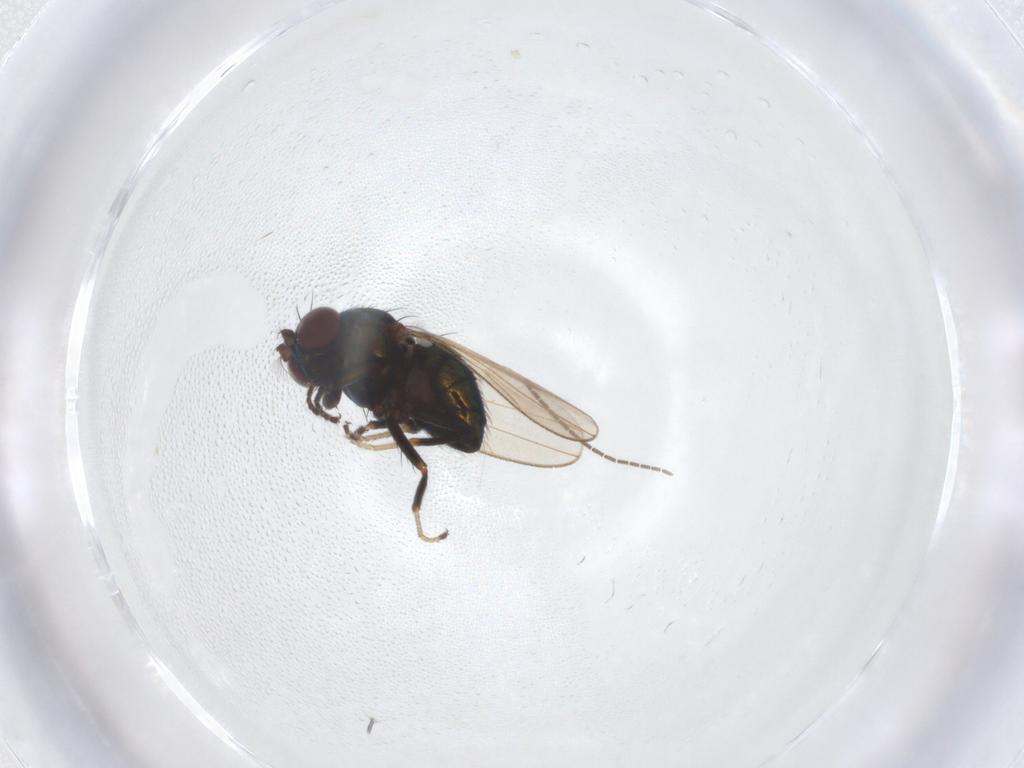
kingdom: Animalia
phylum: Arthropoda
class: Insecta
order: Diptera
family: Ephydridae
